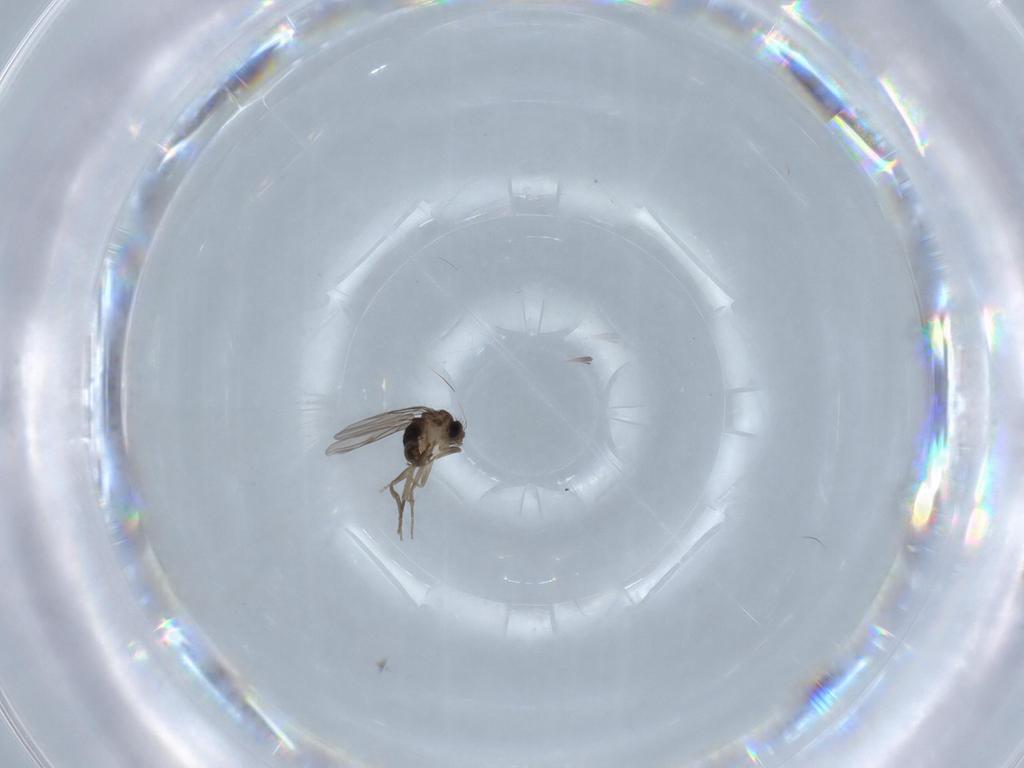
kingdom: Animalia
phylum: Arthropoda
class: Insecta
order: Diptera
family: Phoridae
